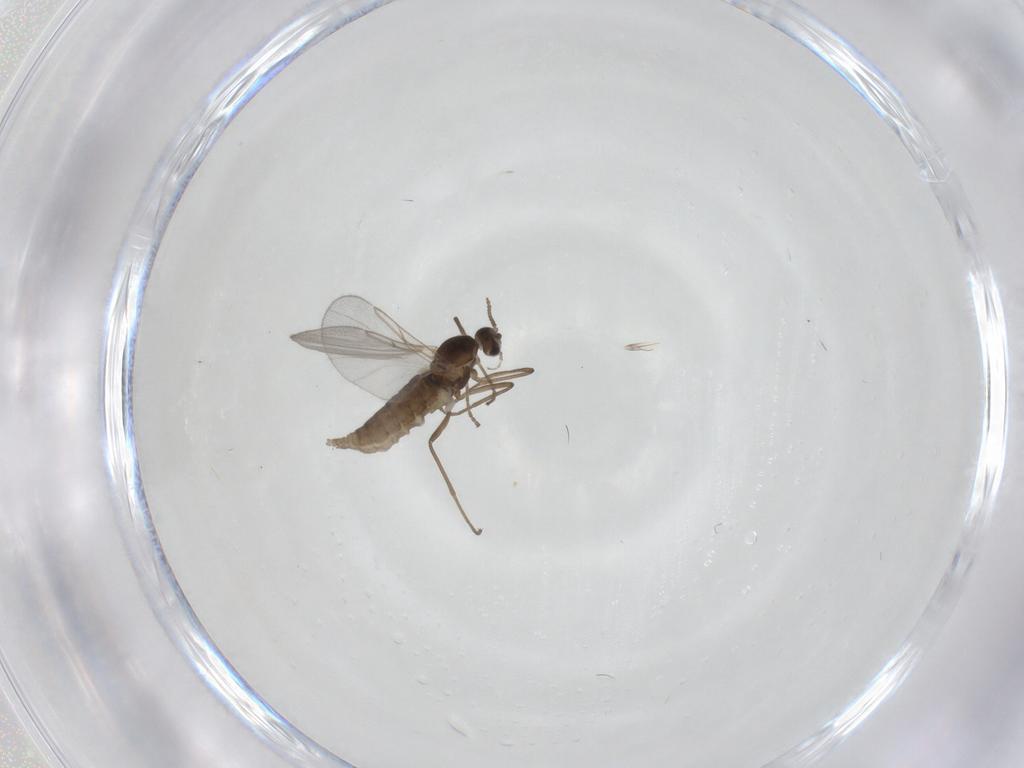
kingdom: Animalia
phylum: Arthropoda
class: Insecta
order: Diptera
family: Cecidomyiidae
